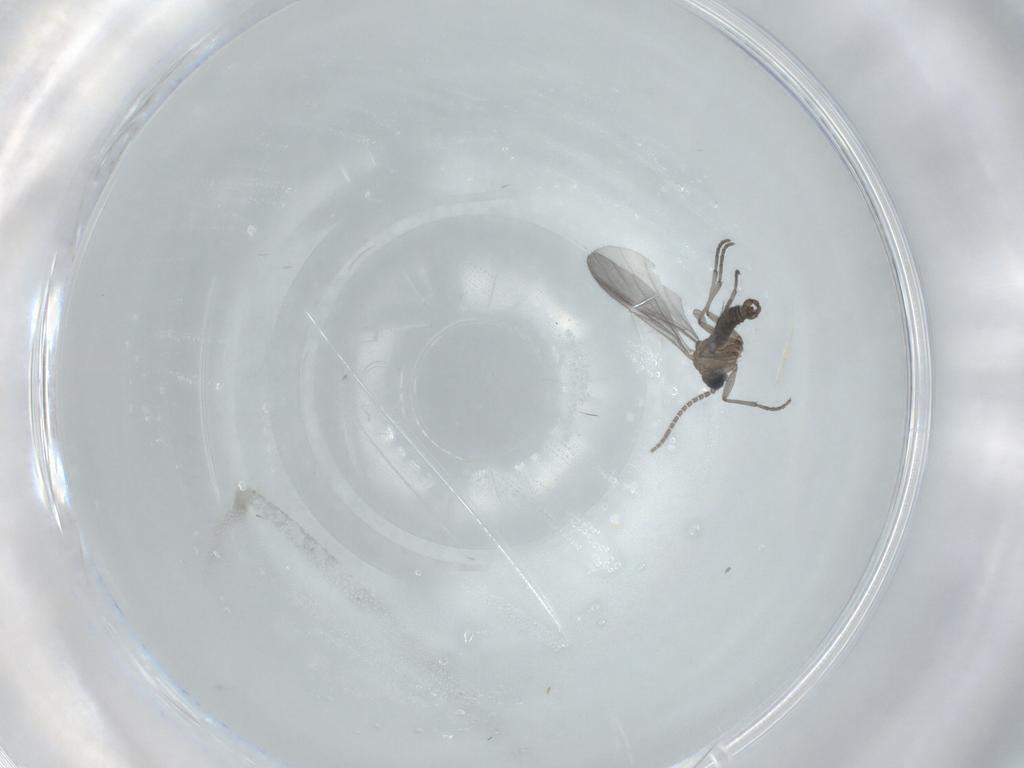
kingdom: Animalia
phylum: Arthropoda
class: Insecta
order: Diptera
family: Sciaridae
